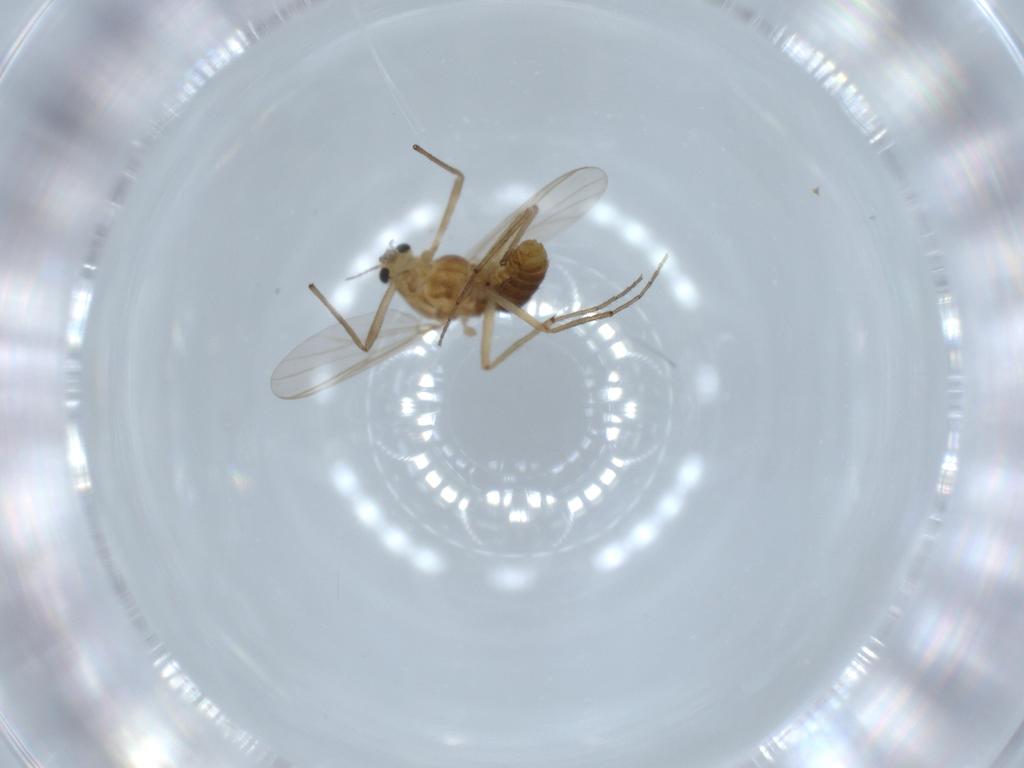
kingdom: Animalia
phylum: Arthropoda
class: Insecta
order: Diptera
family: Chironomidae
